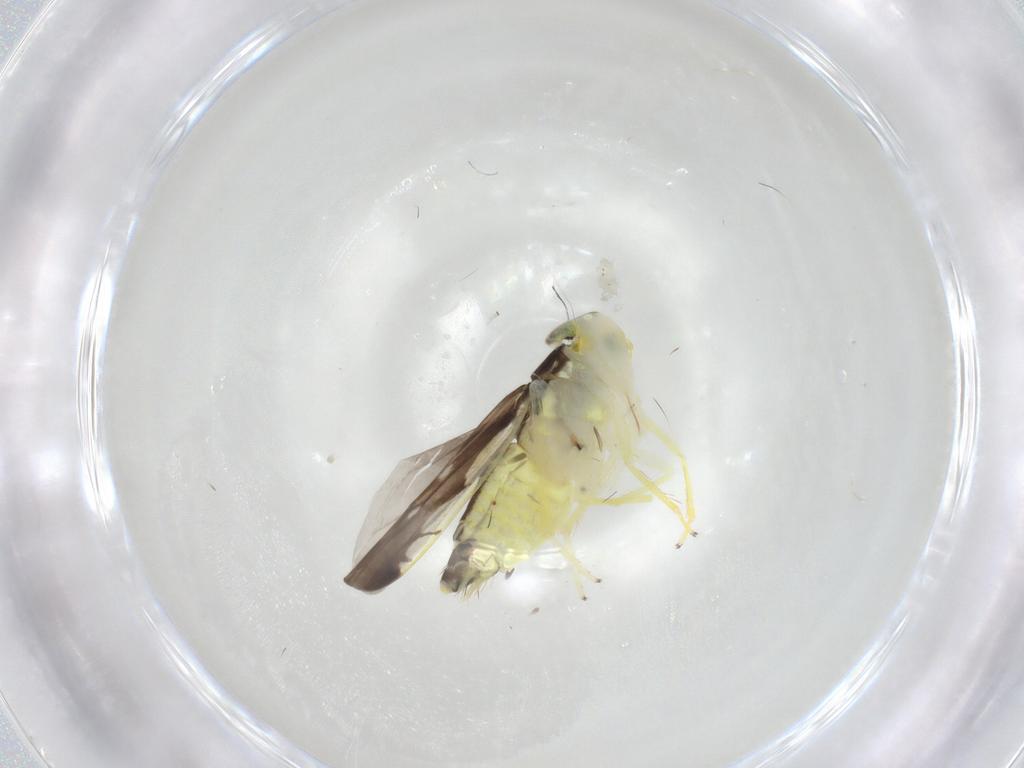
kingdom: Animalia
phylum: Arthropoda
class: Insecta
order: Hemiptera
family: Cicadellidae
